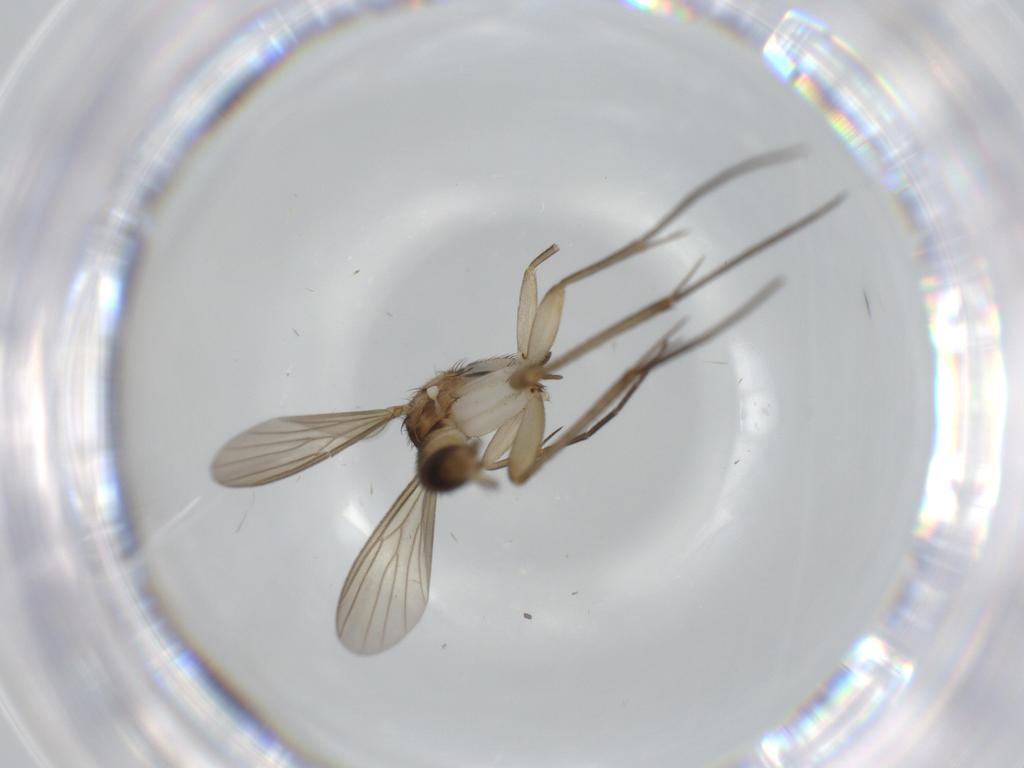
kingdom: Animalia
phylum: Arthropoda
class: Insecta
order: Diptera
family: Mycetophilidae
